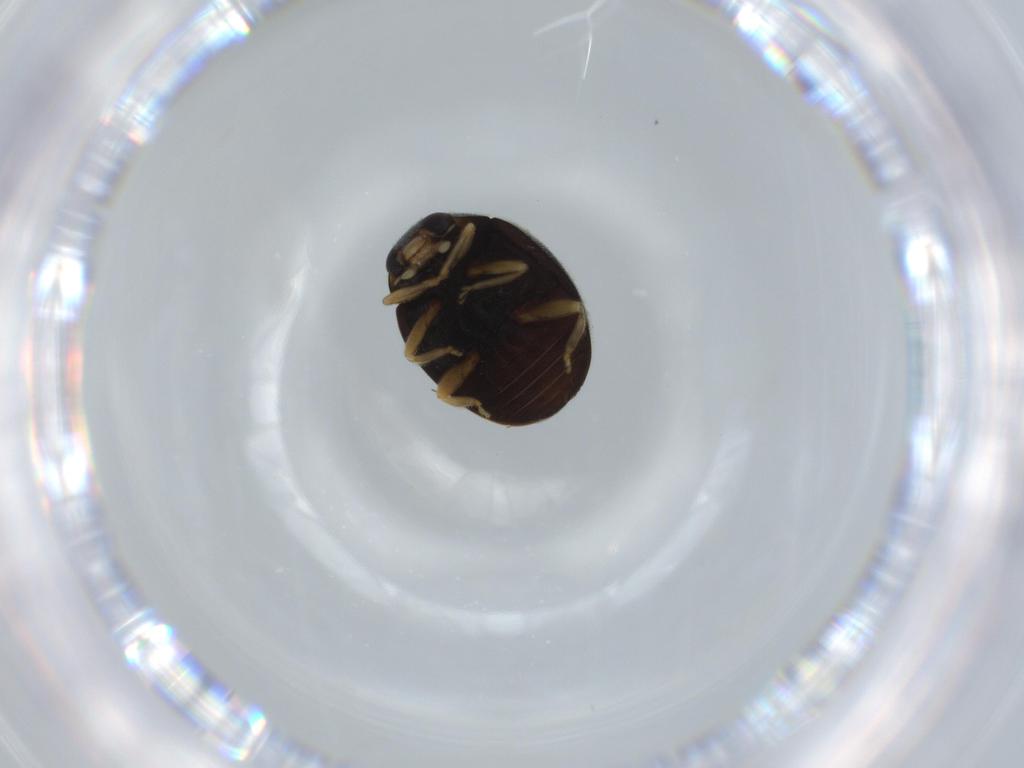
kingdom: Animalia
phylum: Arthropoda
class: Insecta
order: Coleoptera
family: Coccinellidae
